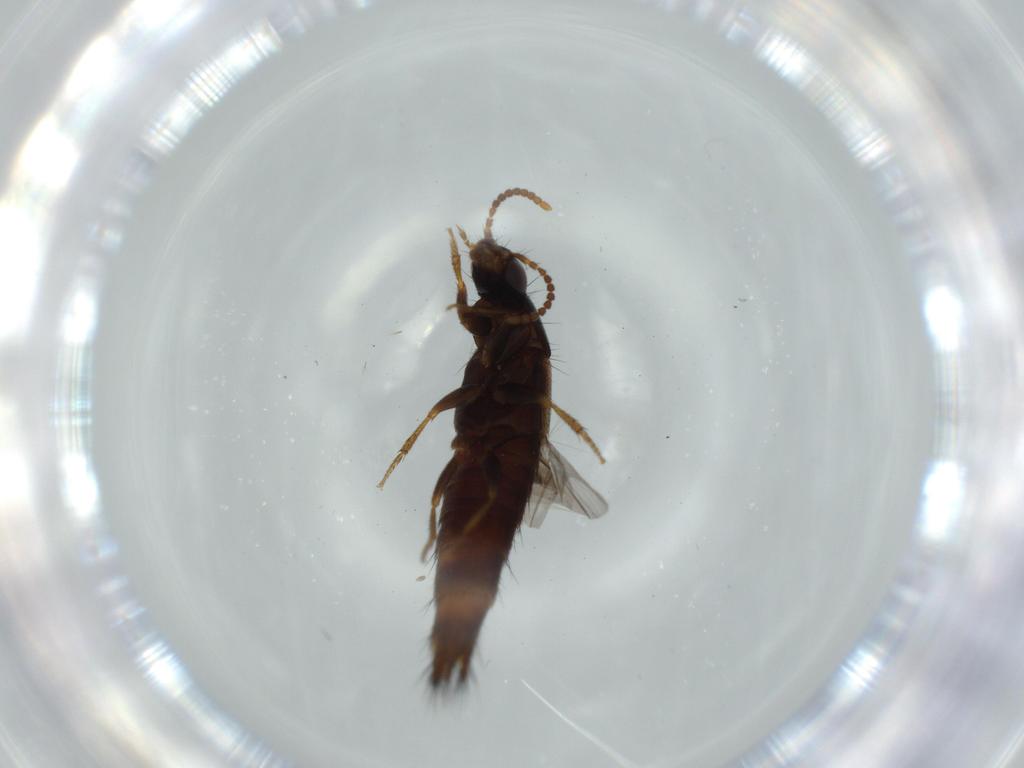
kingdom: Animalia
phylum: Arthropoda
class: Insecta
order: Coleoptera
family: Staphylinidae
